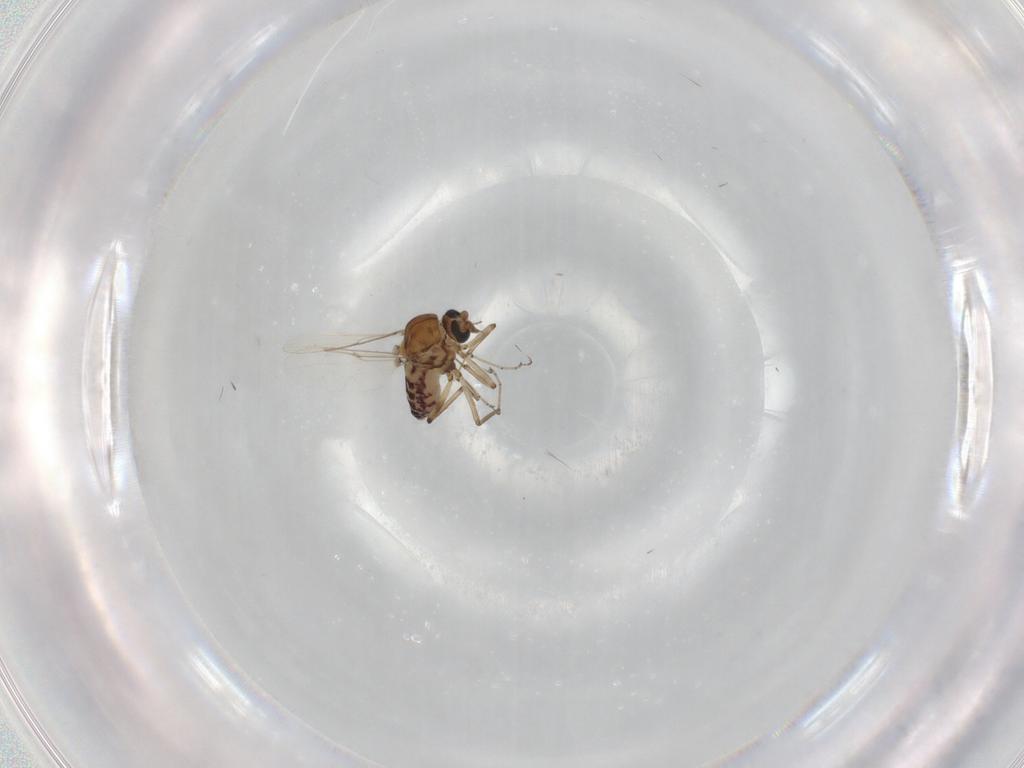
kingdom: Animalia
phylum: Arthropoda
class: Insecta
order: Diptera
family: Ceratopogonidae
